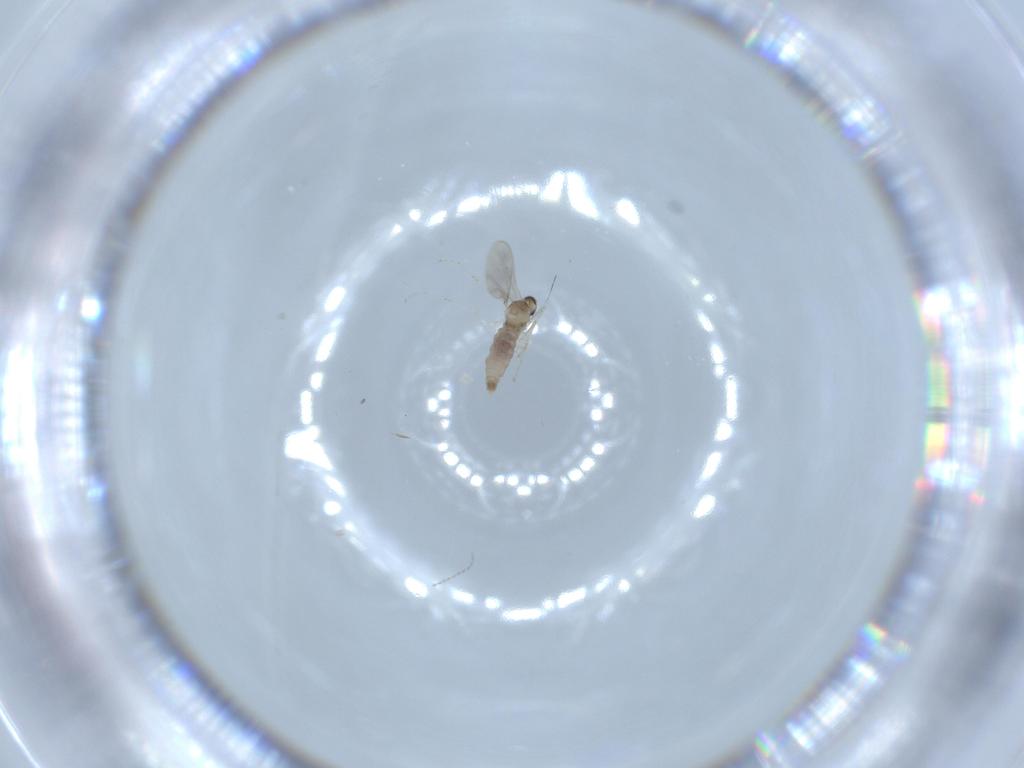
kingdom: Animalia
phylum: Arthropoda
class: Insecta
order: Diptera
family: Cecidomyiidae
